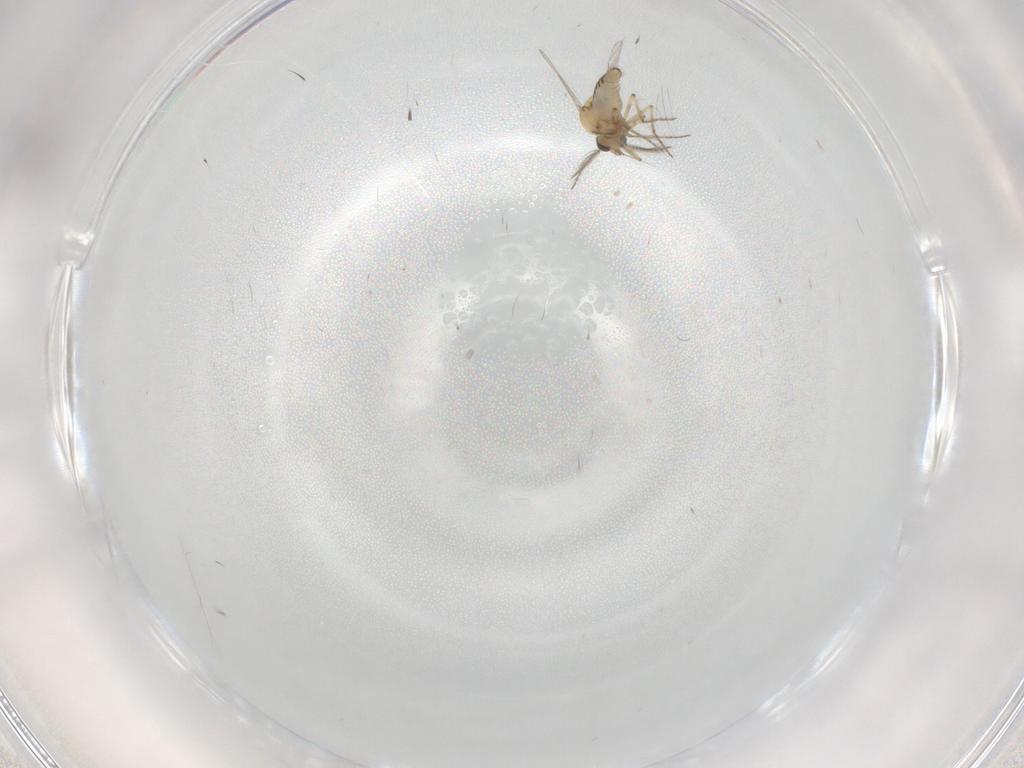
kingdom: Animalia
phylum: Arthropoda
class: Insecta
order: Diptera
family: Ceratopogonidae
